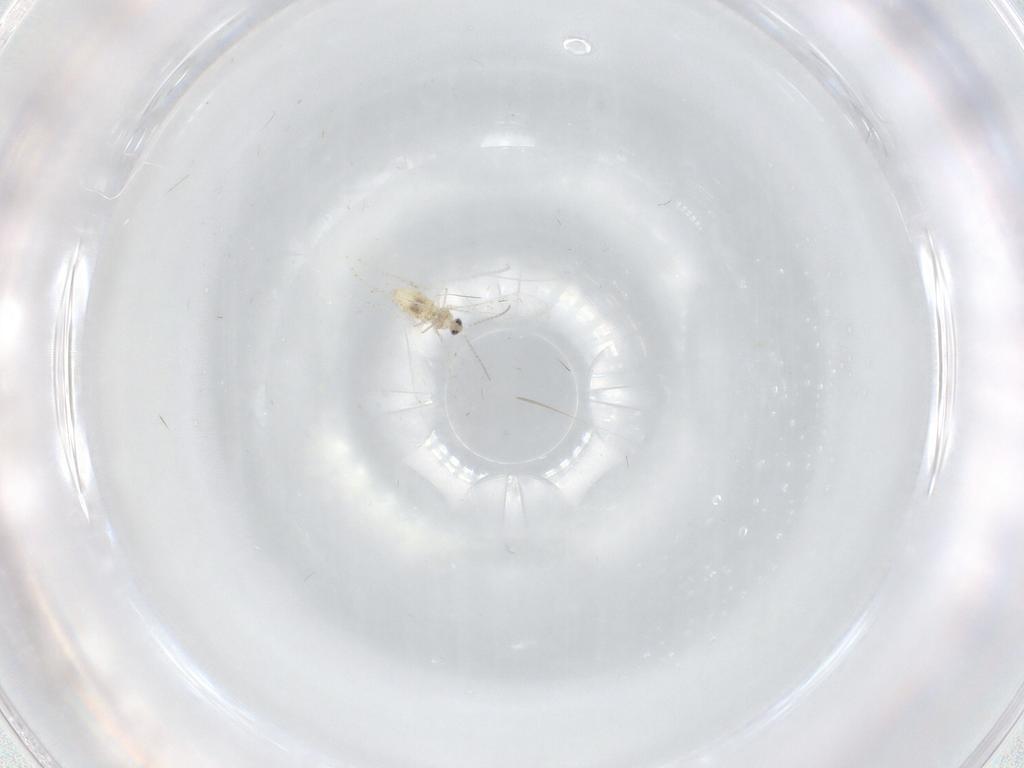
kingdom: Animalia
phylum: Arthropoda
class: Insecta
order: Diptera
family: Cecidomyiidae
